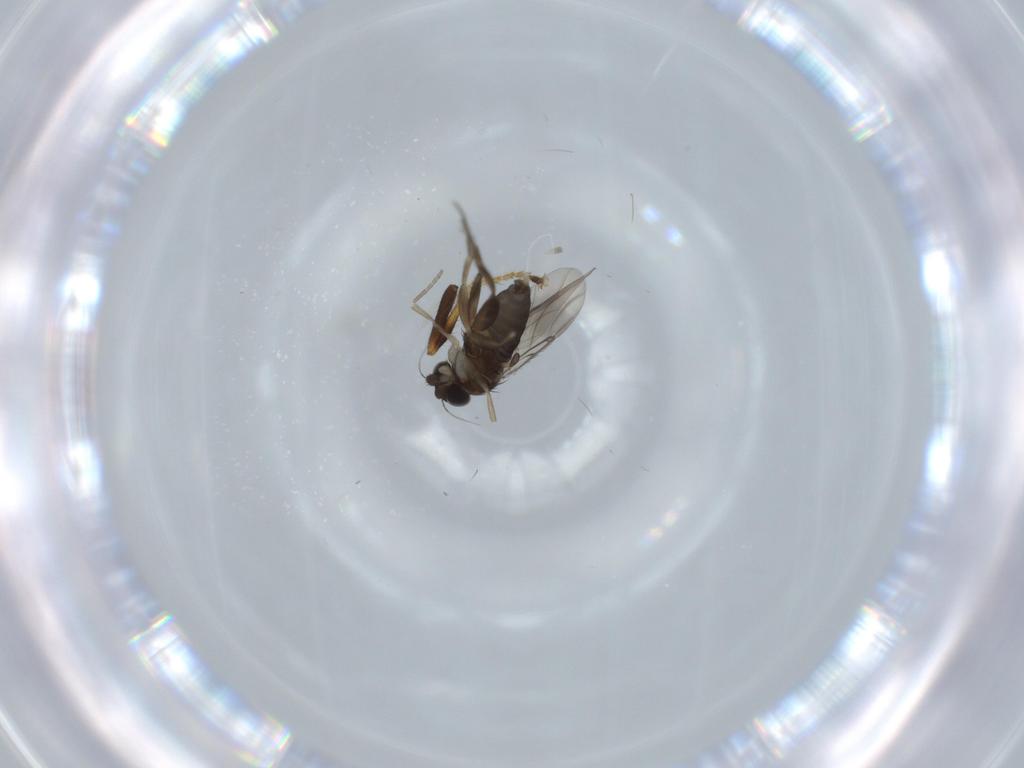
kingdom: Animalia
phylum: Arthropoda
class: Insecta
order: Diptera
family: Phoridae
